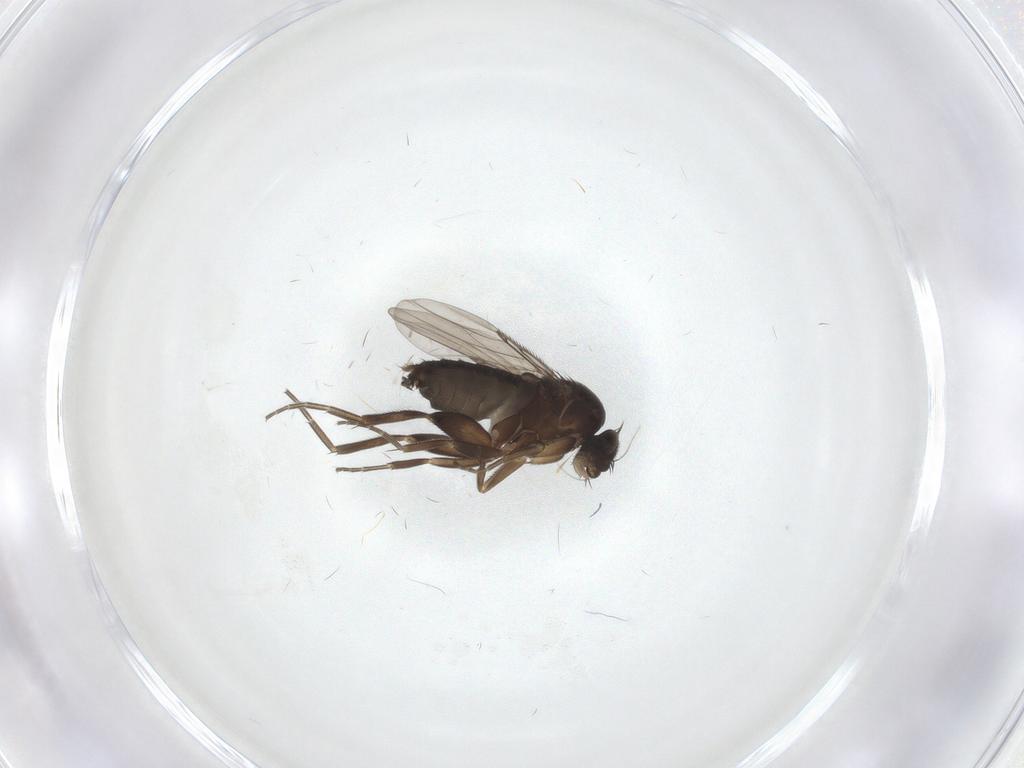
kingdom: Animalia
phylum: Arthropoda
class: Insecta
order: Diptera
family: Phoridae
